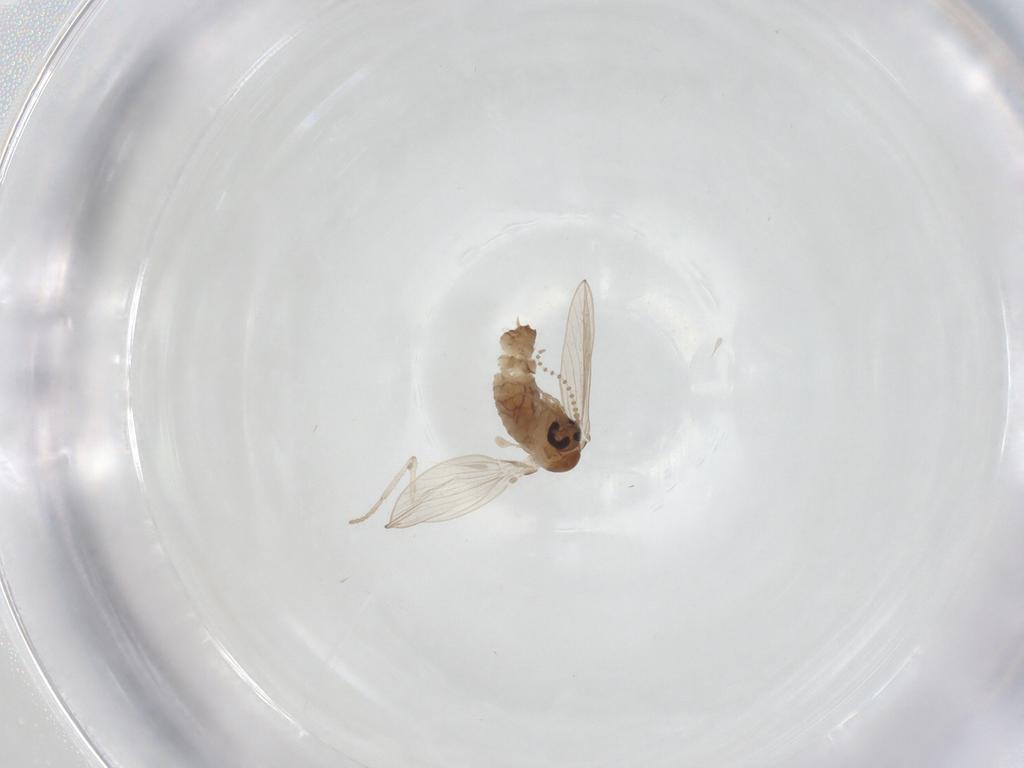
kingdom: Animalia
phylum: Arthropoda
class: Insecta
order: Diptera
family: Psychodidae
